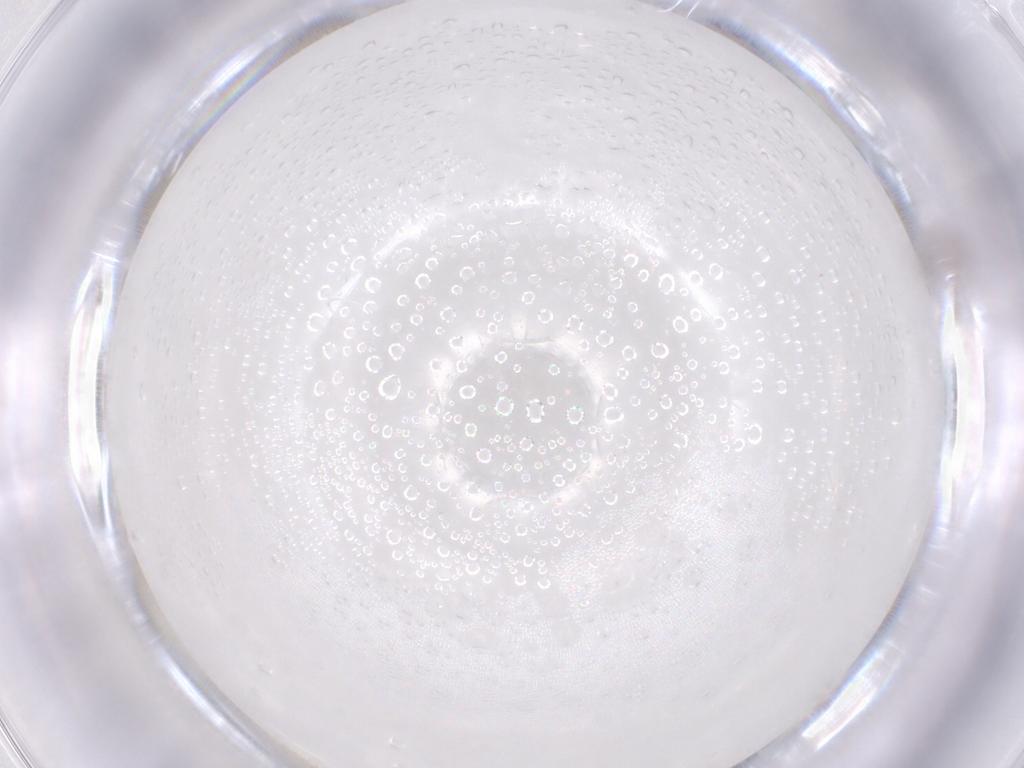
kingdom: Animalia
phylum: Arthropoda
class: Insecta
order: Diptera
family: Cecidomyiidae
